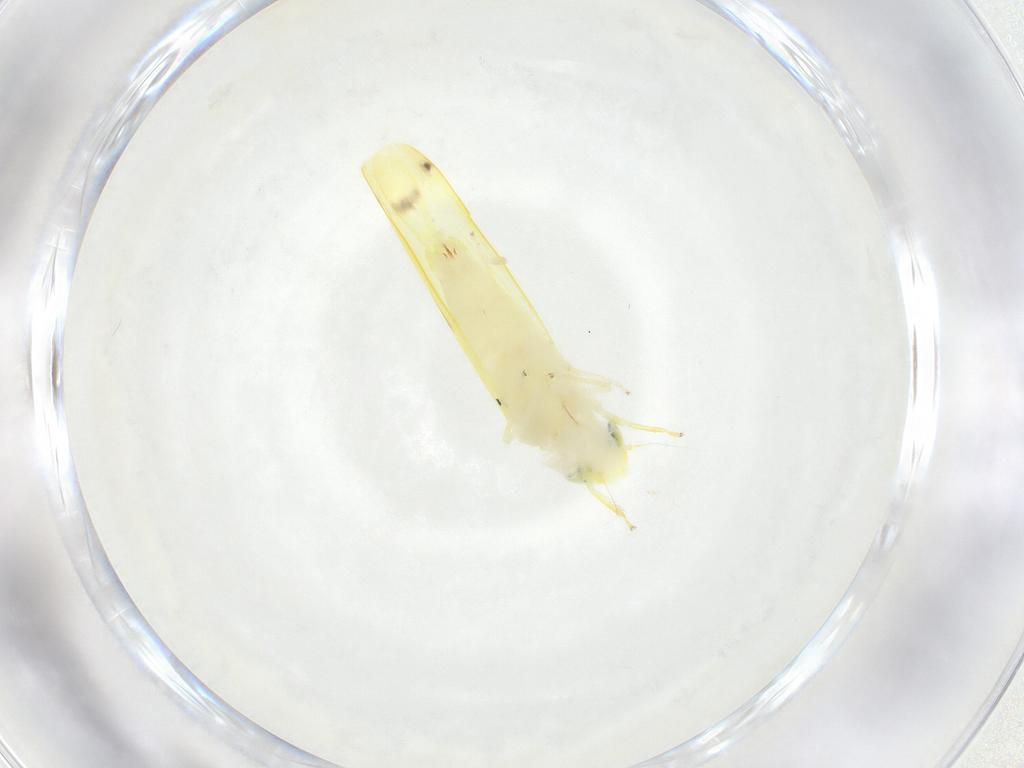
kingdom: Animalia
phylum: Arthropoda
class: Insecta
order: Hemiptera
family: Cicadellidae
